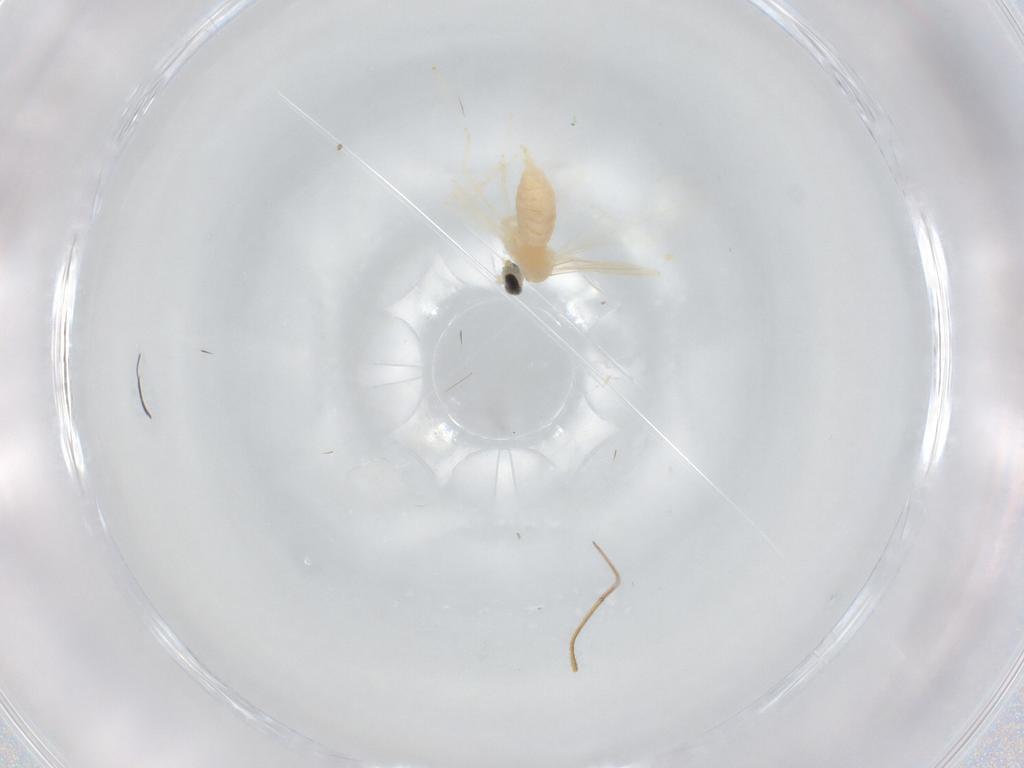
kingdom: Animalia
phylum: Arthropoda
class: Insecta
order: Diptera
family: Cecidomyiidae
